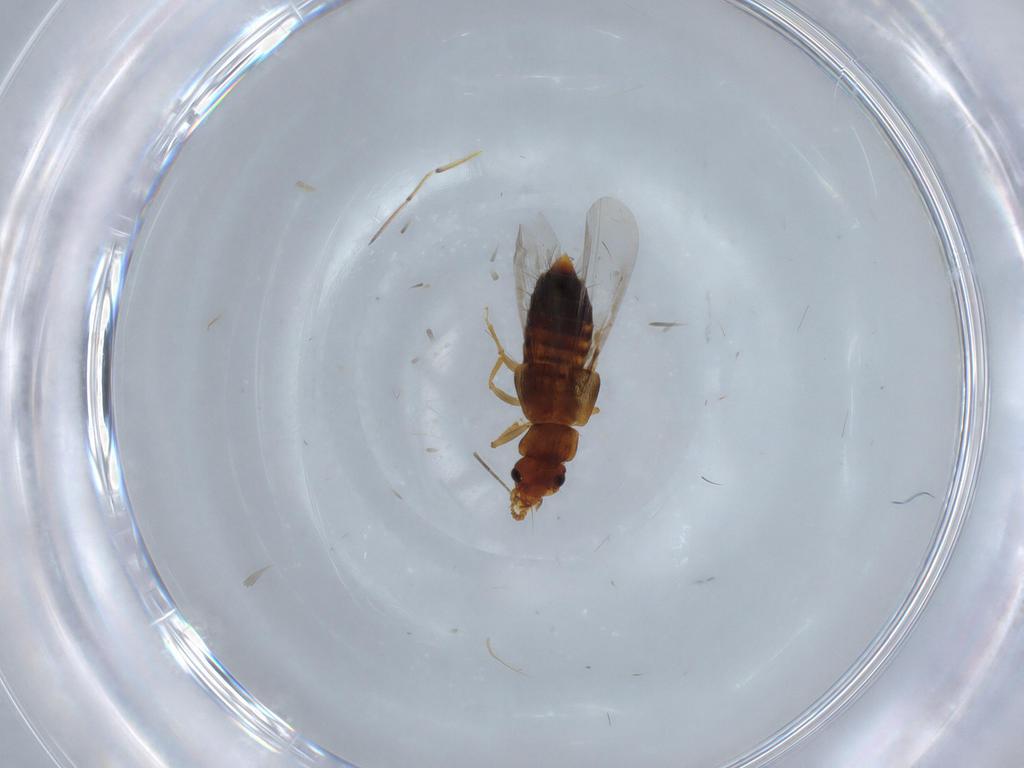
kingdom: Animalia
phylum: Arthropoda
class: Insecta
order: Coleoptera
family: Staphylinidae
